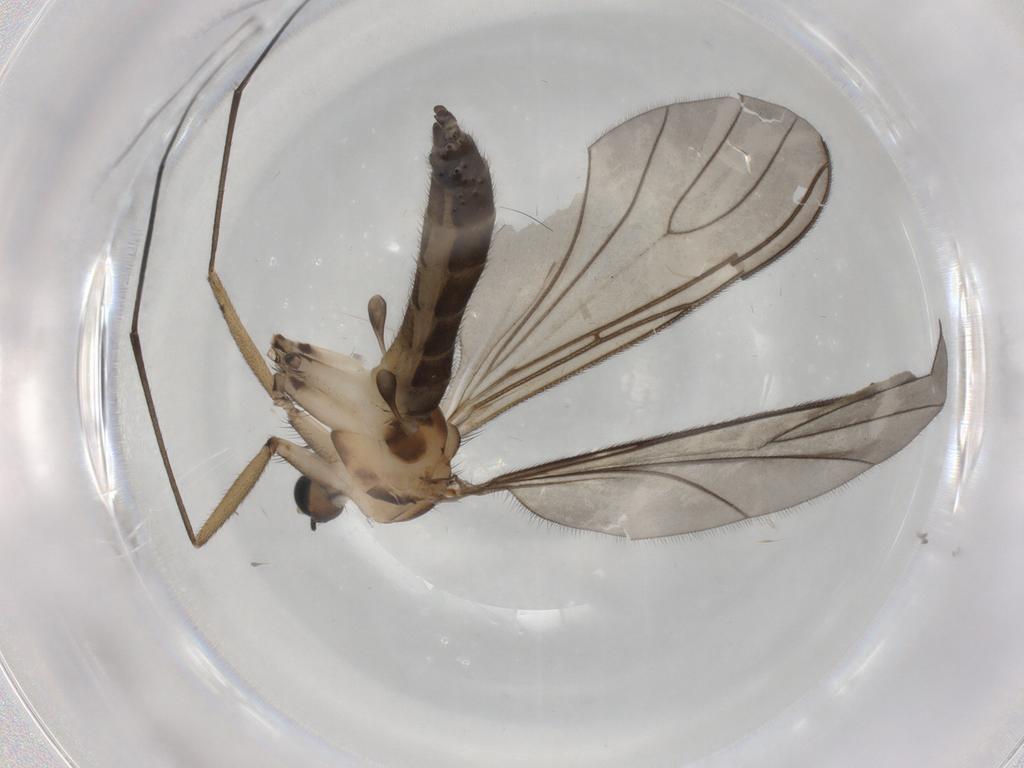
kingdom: Animalia
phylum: Arthropoda
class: Insecta
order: Diptera
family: Sciaridae
